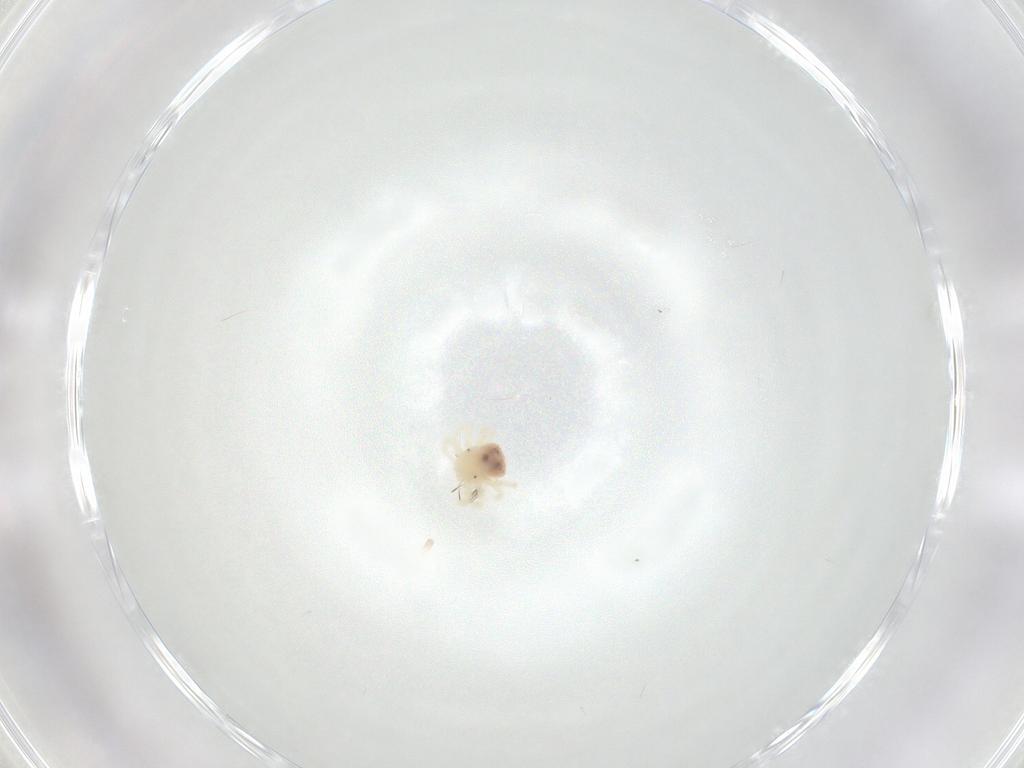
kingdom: Animalia
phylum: Arthropoda
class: Arachnida
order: Trombidiformes
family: Anystidae
